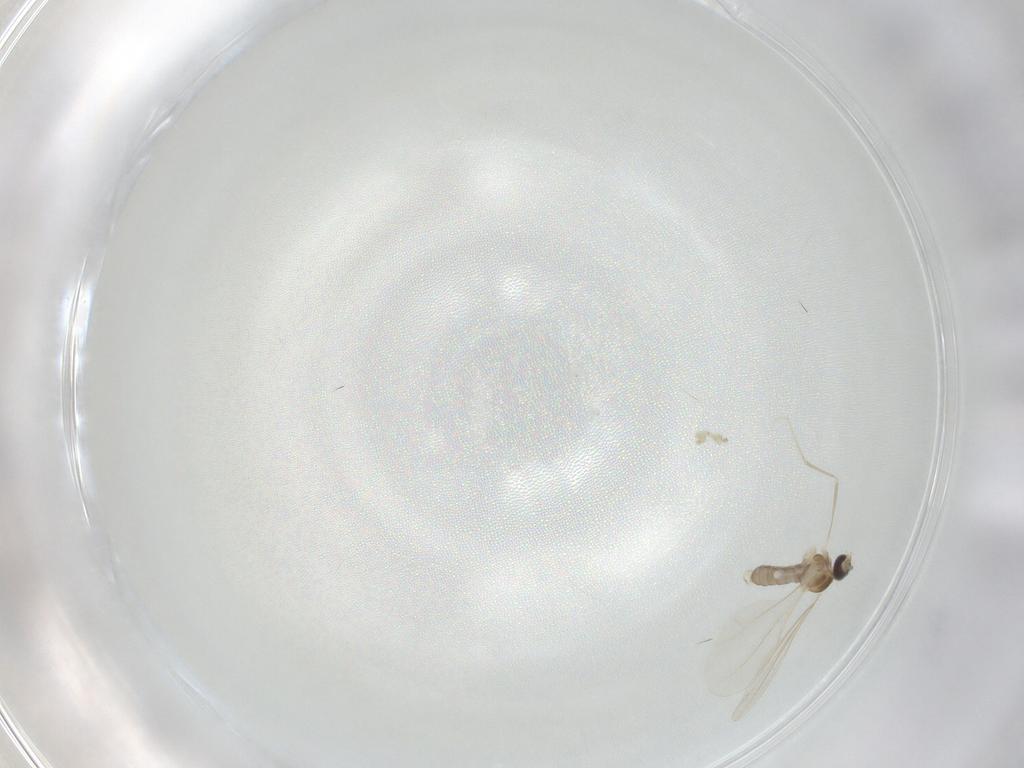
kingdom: Animalia
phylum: Arthropoda
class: Insecta
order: Diptera
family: Cecidomyiidae
